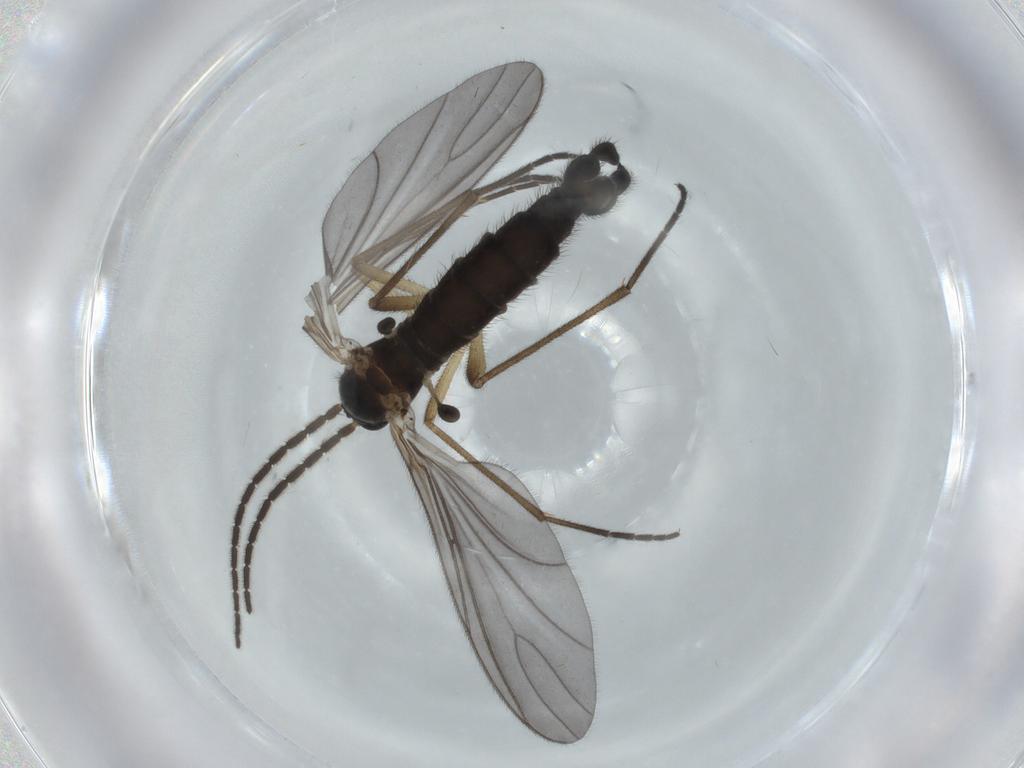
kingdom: Animalia
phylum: Arthropoda
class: Insecta
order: Diptera
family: Sciaridae
